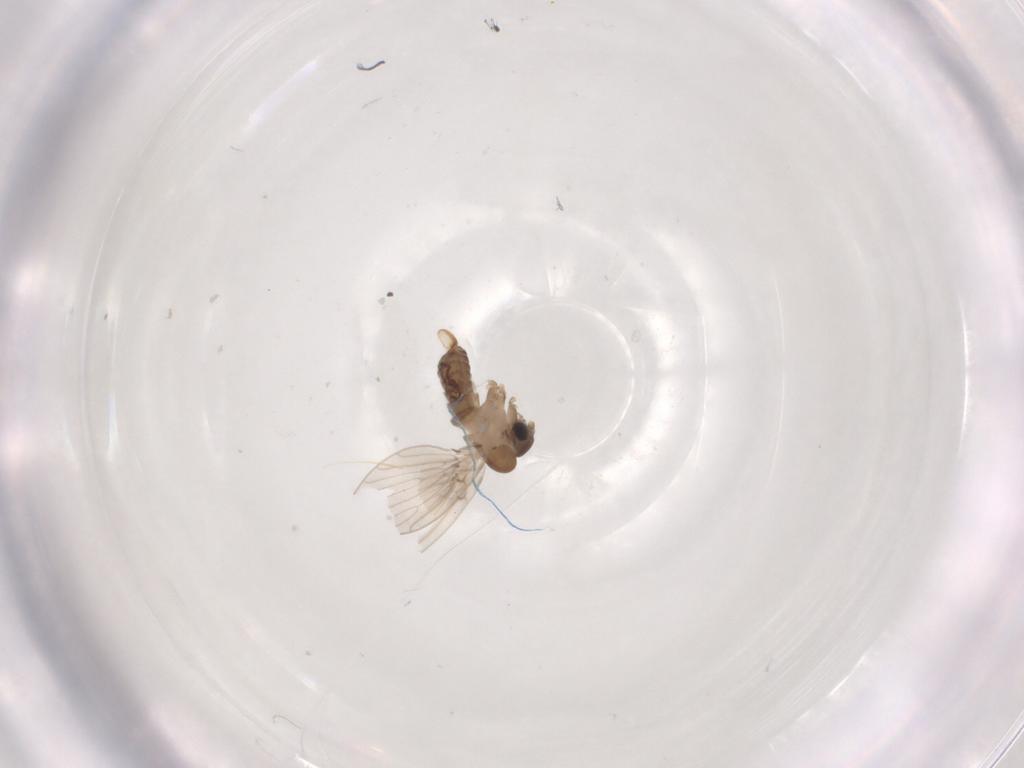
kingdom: Animalia
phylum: Arthropoda
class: Insecta
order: Diptera
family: Psychodidae
